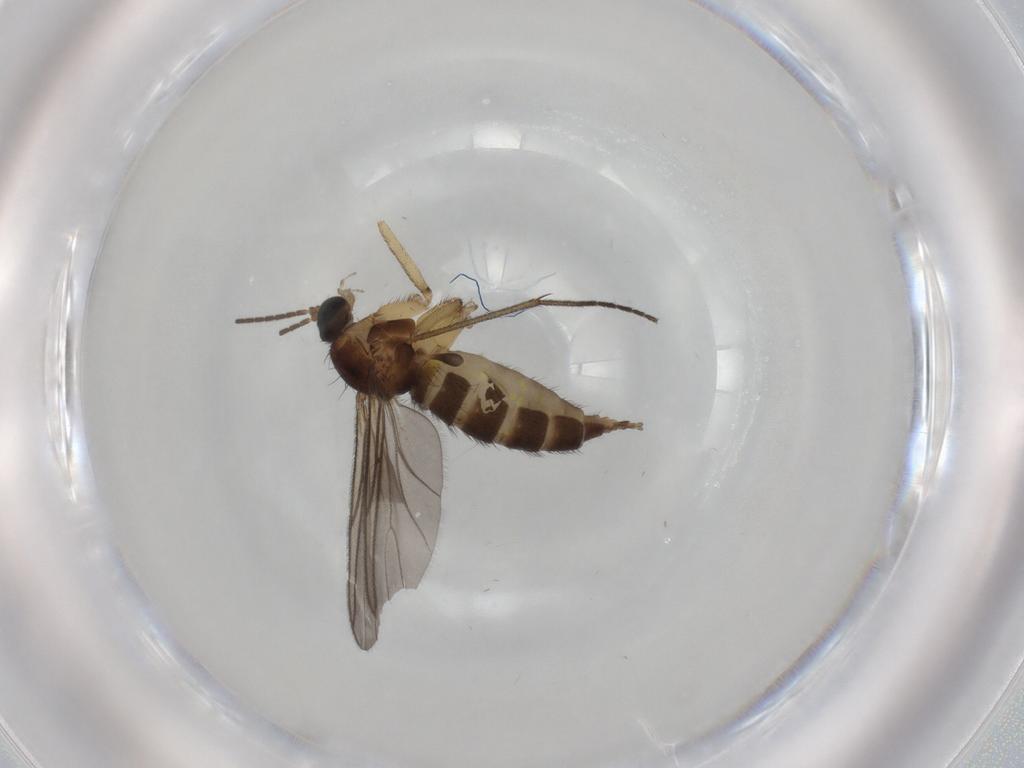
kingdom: Animalia
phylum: Arthropoda
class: Insecta
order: Diptera
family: Sciaridae
